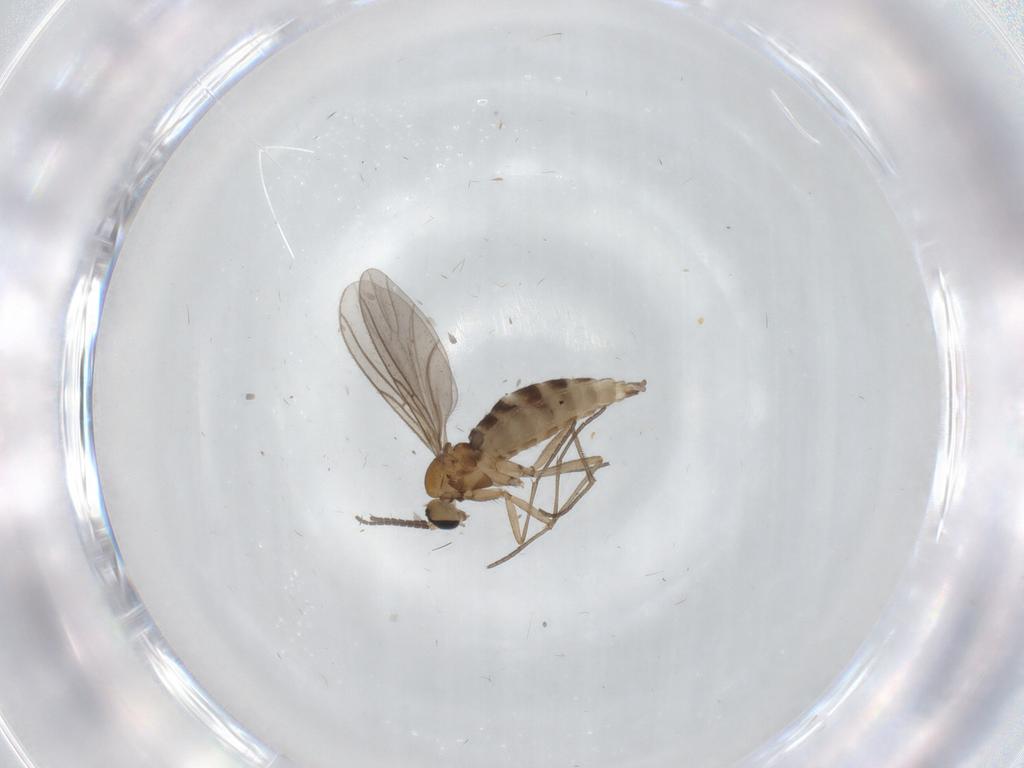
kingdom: Animalia
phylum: Arthropoda
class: Insecta
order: Diptera
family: Sciaridae
